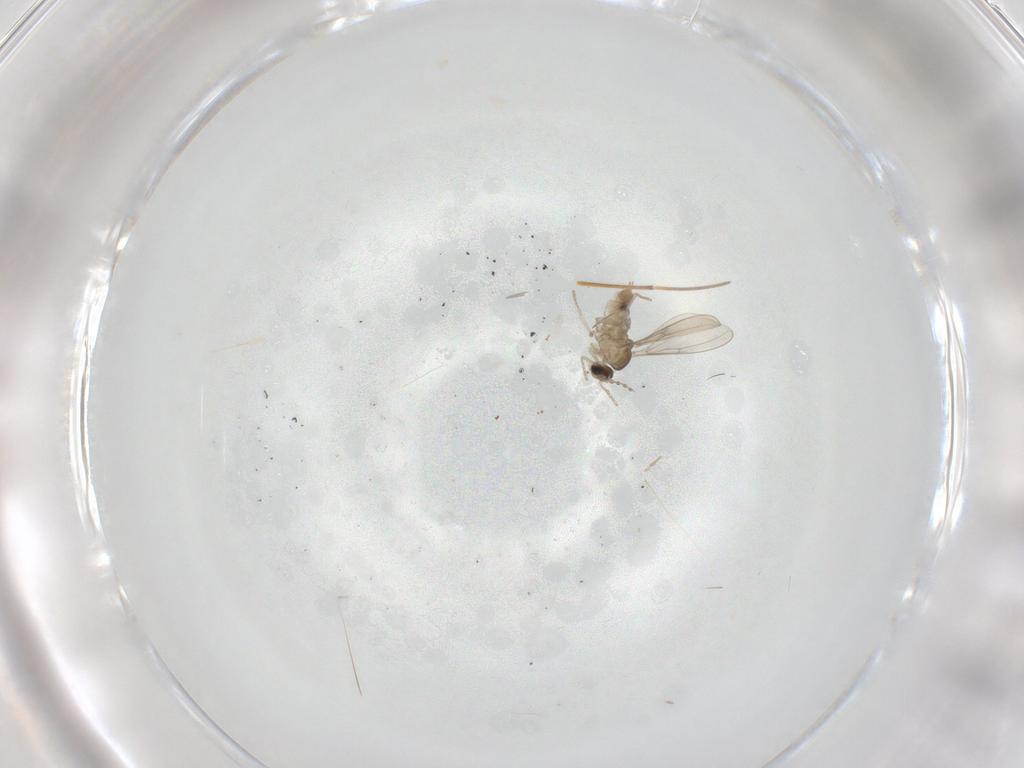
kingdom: Animalia
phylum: Arthropoda
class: Insecta
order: Diptera
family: Cecidomyiidae
